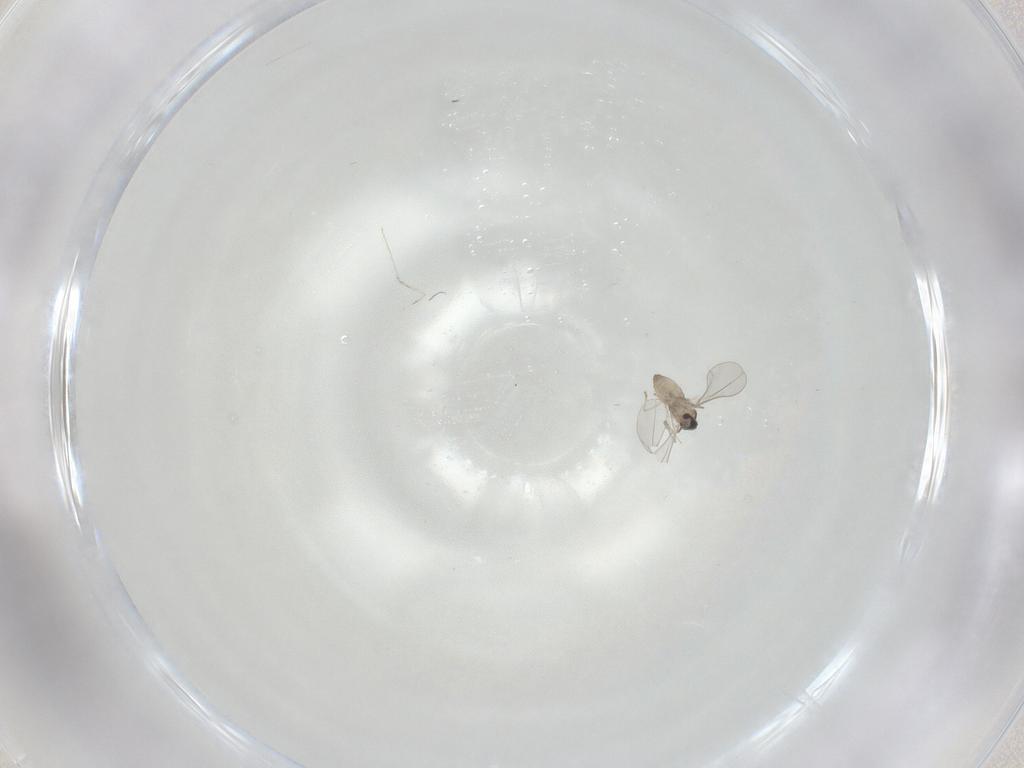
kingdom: Animalia
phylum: Arthropoda
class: Insecta
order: Diptera
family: Cecidomyiidae
